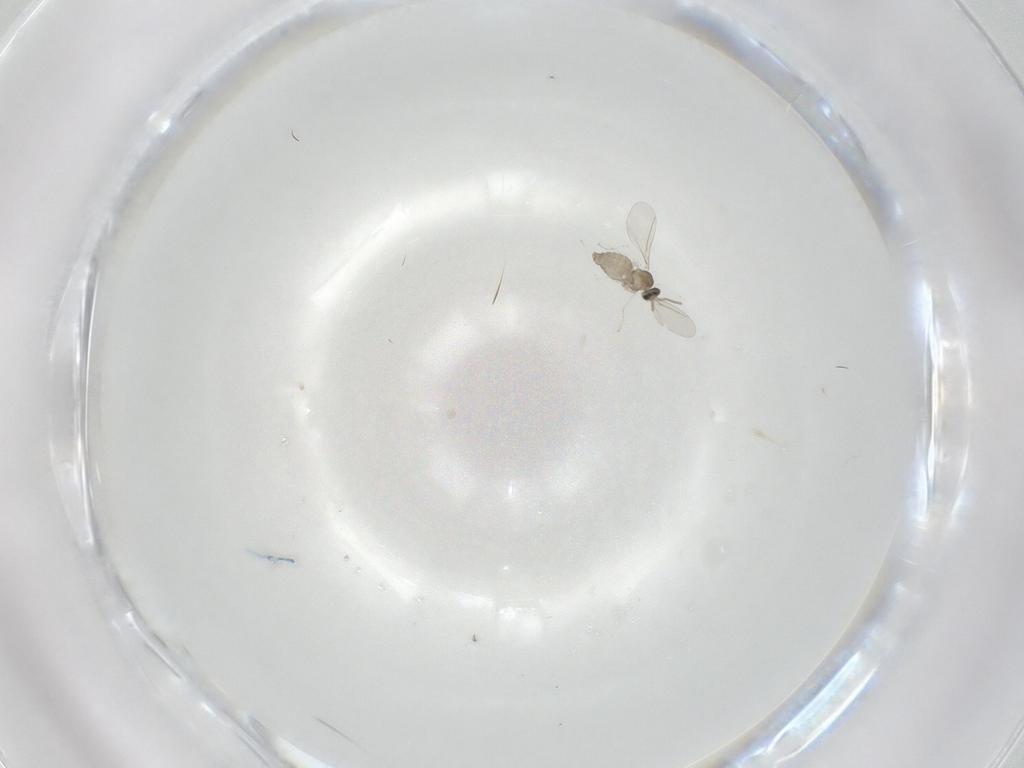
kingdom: Animalia
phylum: Arthropoda
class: Insecta
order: Diptera
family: Cecidomyiidae
